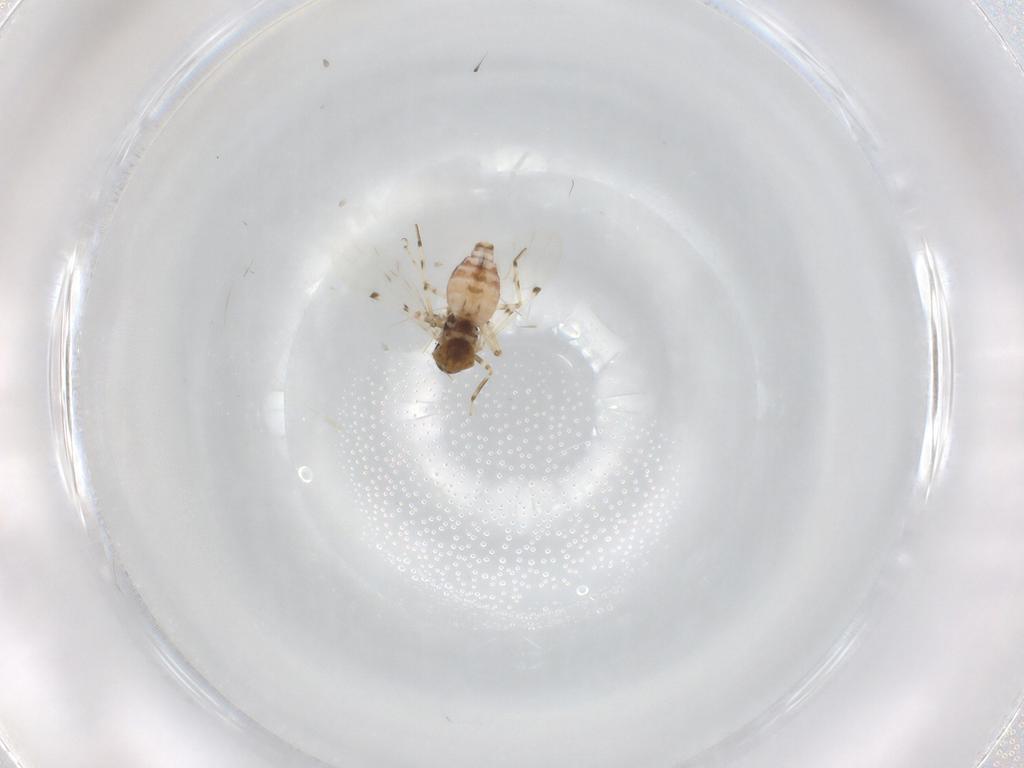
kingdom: Animalia
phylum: Arthropoda
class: Insecta
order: Diptera
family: Ceratopogonidae
